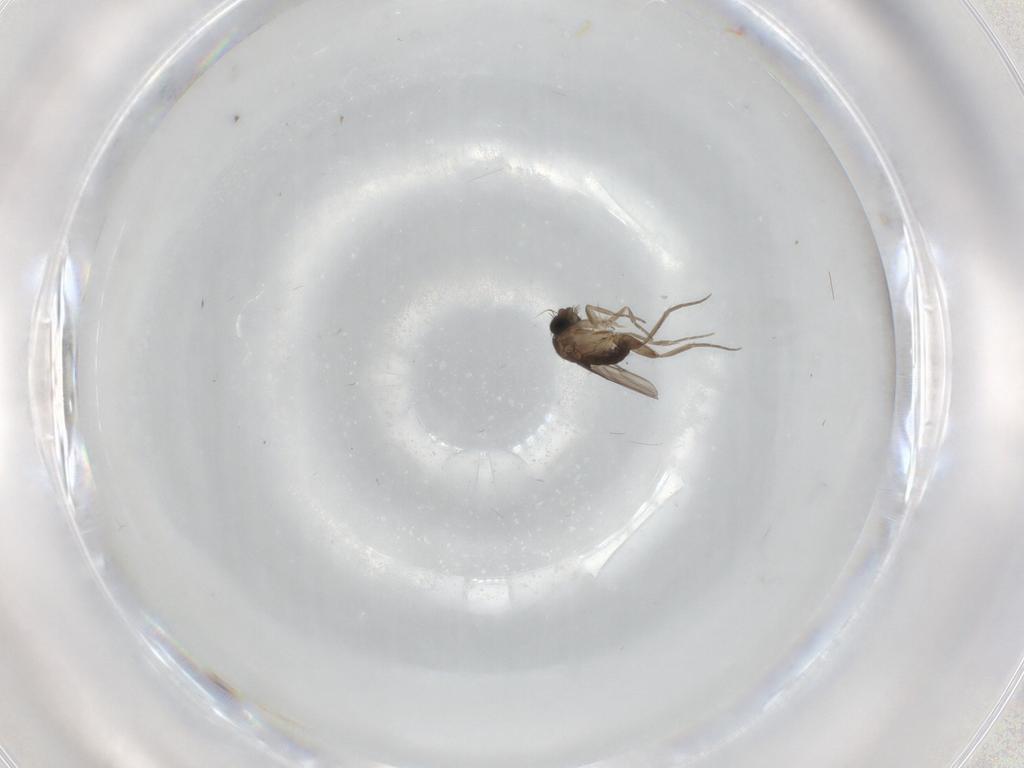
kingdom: Animalia
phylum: Arthropoda
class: Insecta
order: Diptera
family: Phoridae
